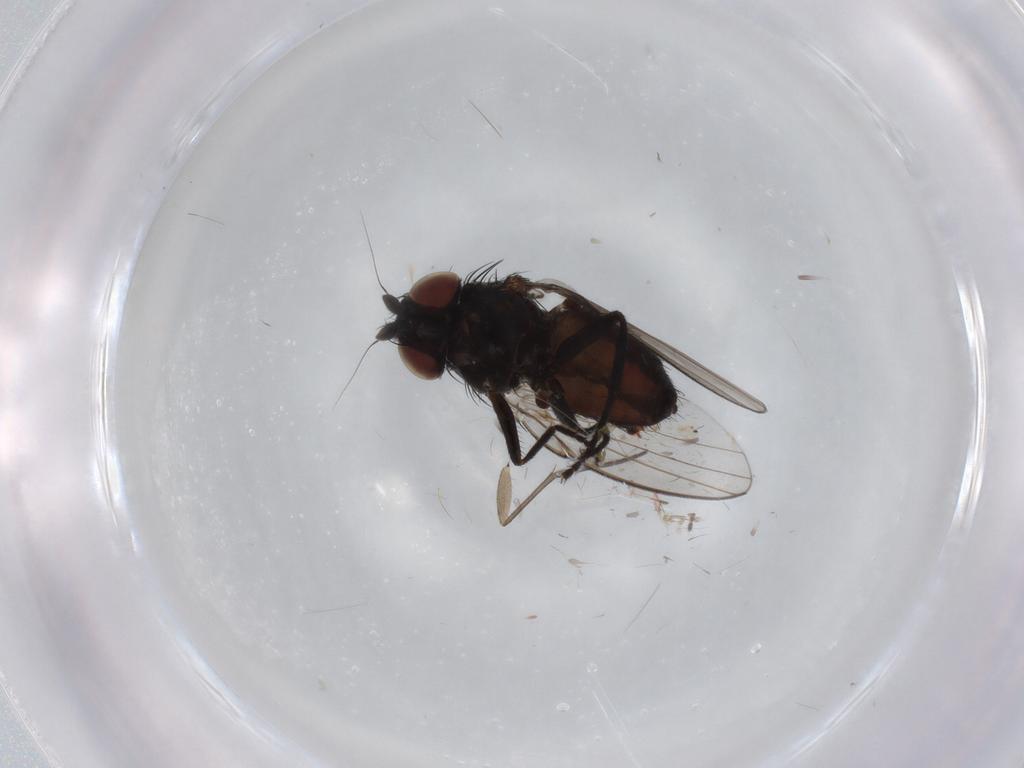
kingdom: Animalia
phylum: Arthropoda
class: Insecta
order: Diptera
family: Milichiidae
